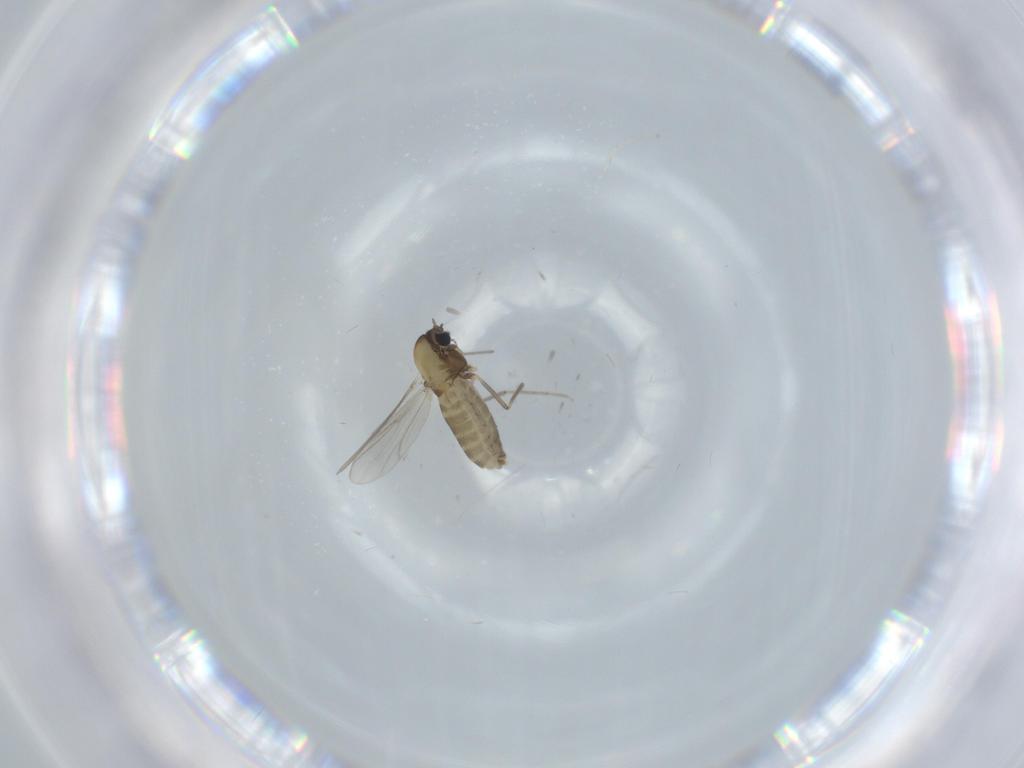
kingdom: Animalia
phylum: Arthropoda
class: Insecta
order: Diptera
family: Chironomidae
